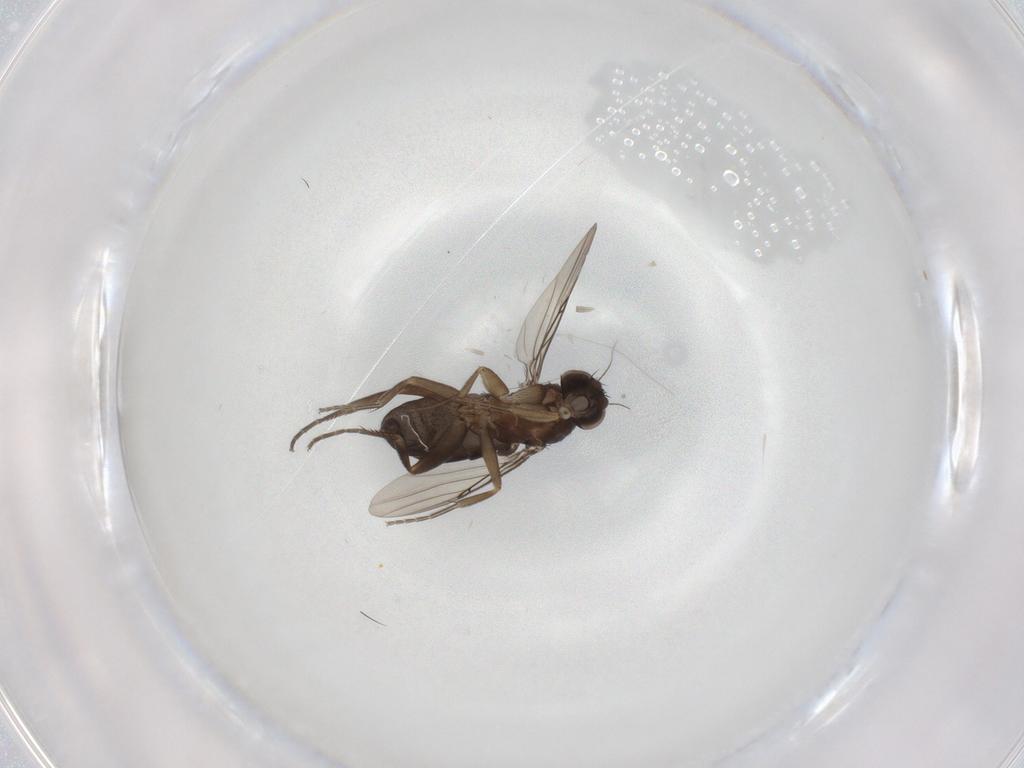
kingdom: Animalia
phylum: Arthropoda
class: Insecta
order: Diptera
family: Phoridae
